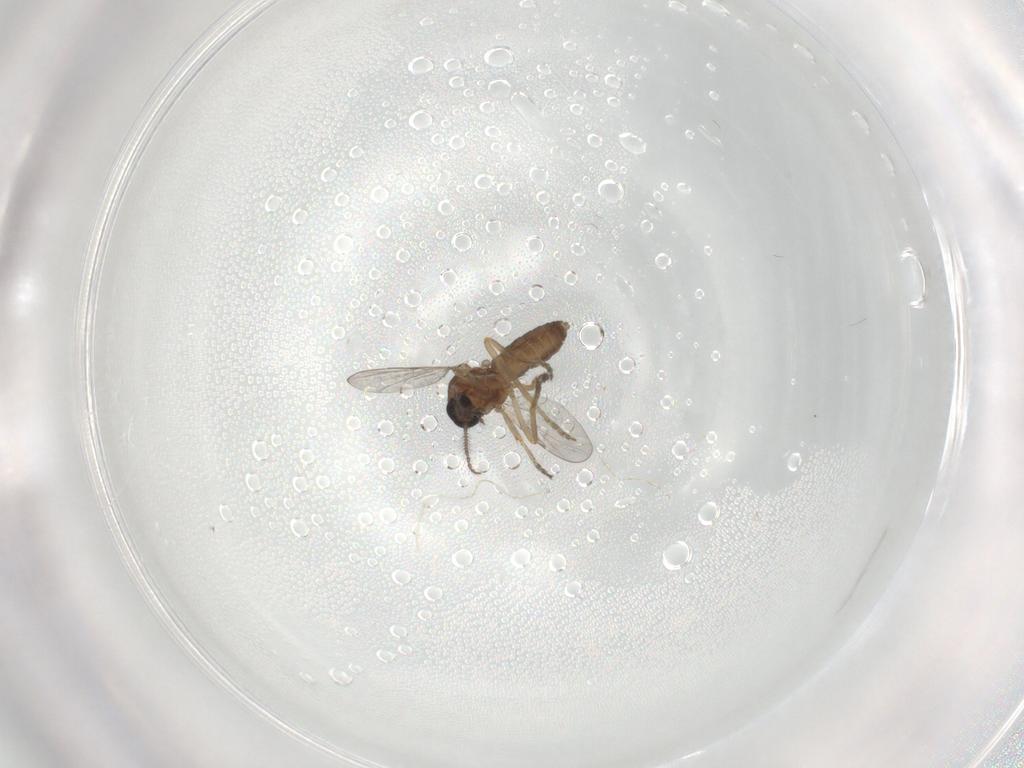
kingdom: Animalia
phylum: Arthropoda
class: Insecta
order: Diptera
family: Ceratopogonidae
